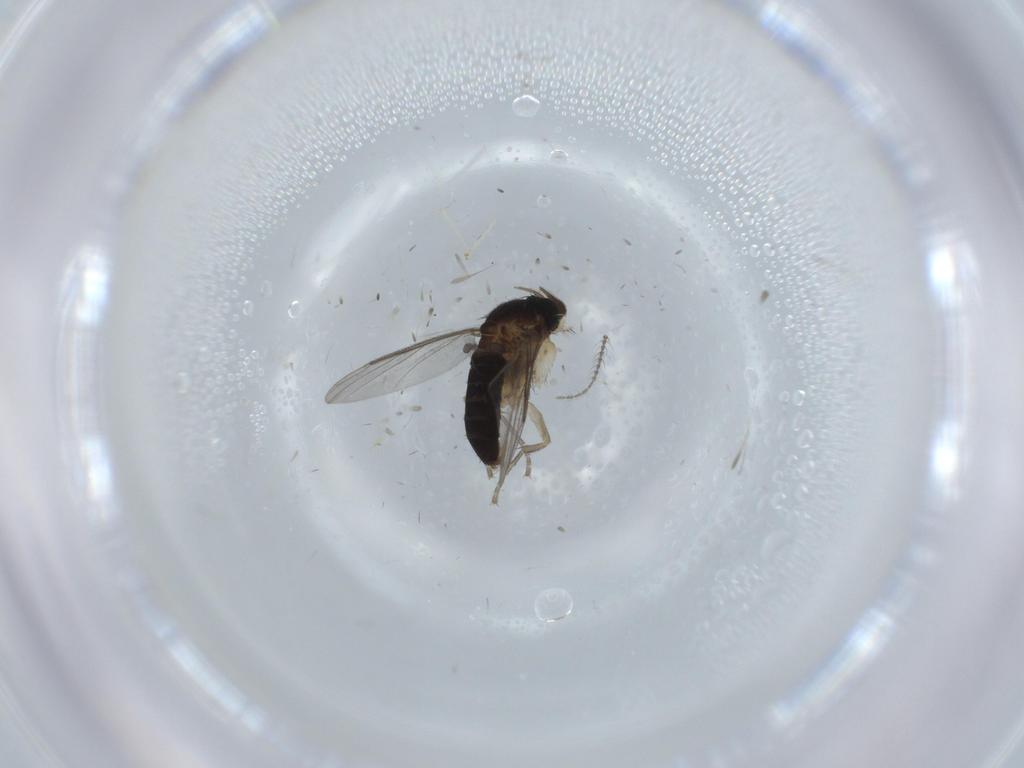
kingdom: Animalia
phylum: Arthropoda
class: Insecta
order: Diptera
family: Ceratopogonidae
